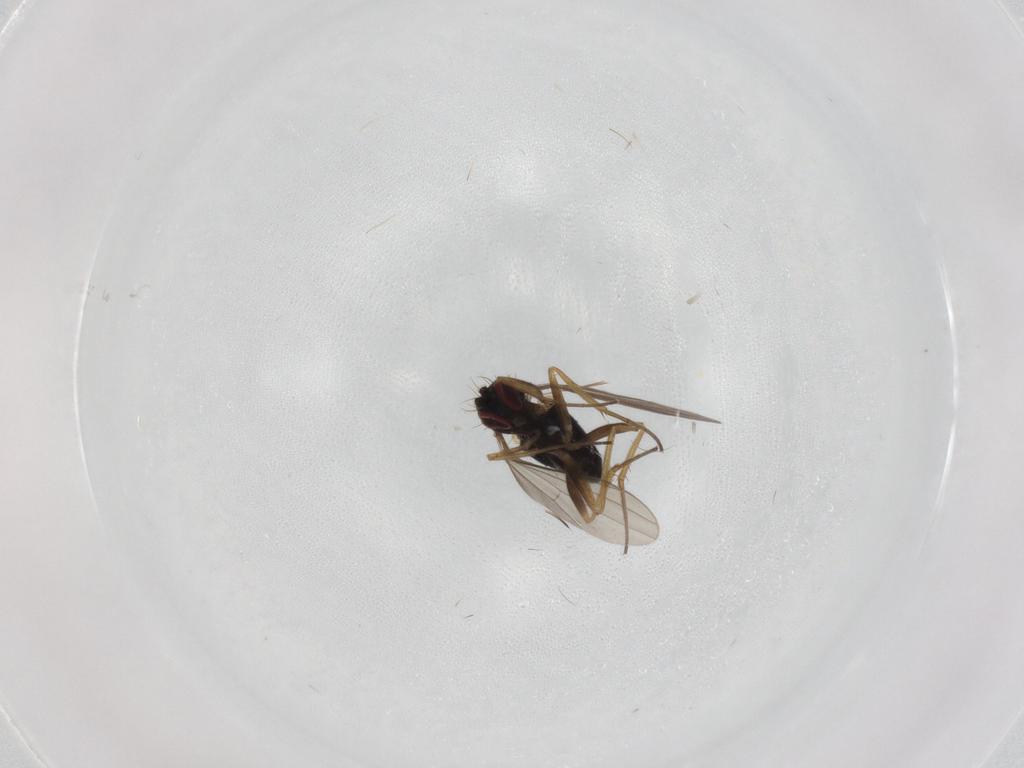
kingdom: Animalia
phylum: Arthropoda
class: Insecta
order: Diptera
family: Dolichopodidae
